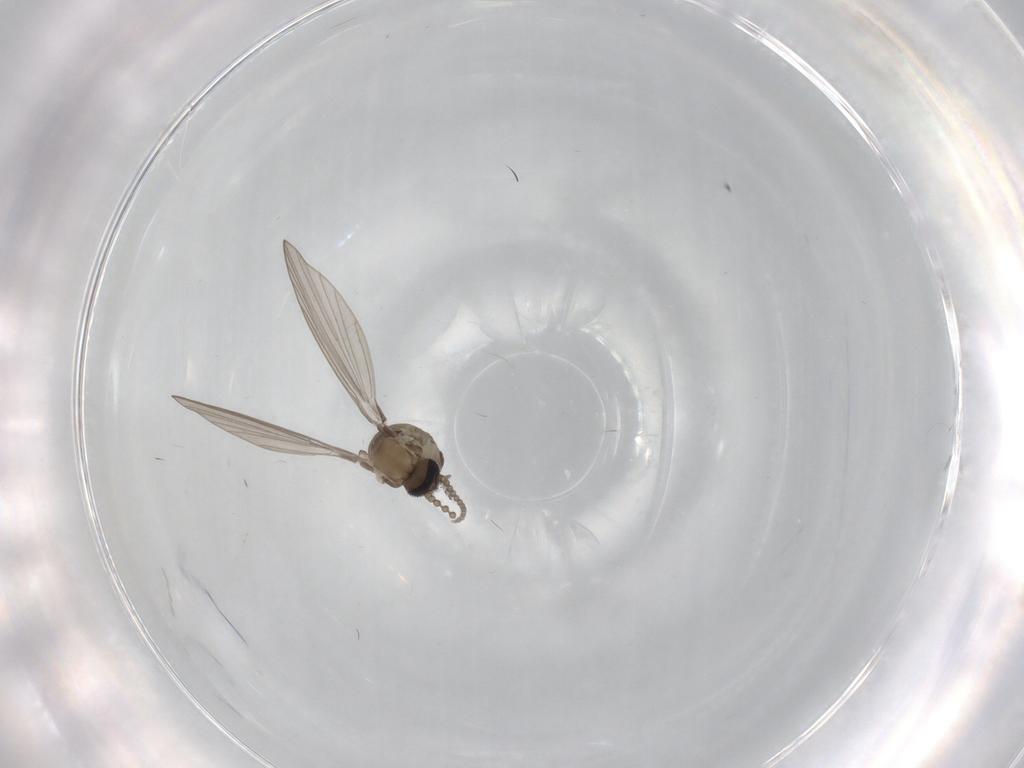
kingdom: Animalia
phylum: Arthropoda
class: Insecta
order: Diptera
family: Psychodidae
